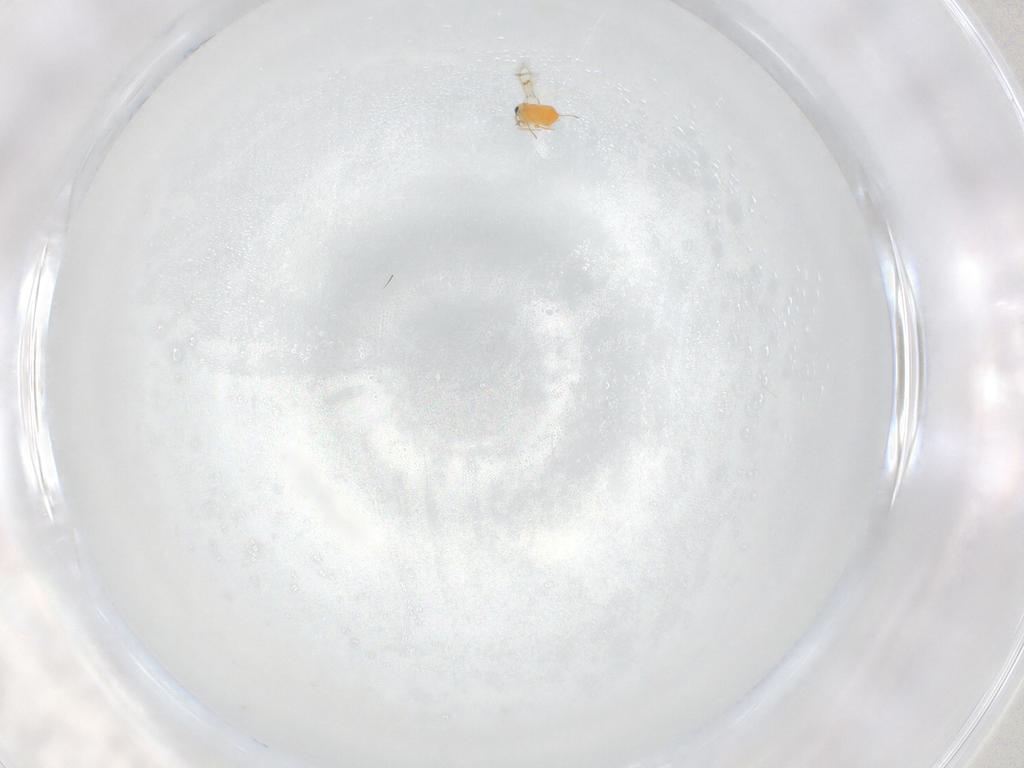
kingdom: Animalia
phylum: Arthropoda
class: Insecta
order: Hymenoptera
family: Trichogrammatidae
